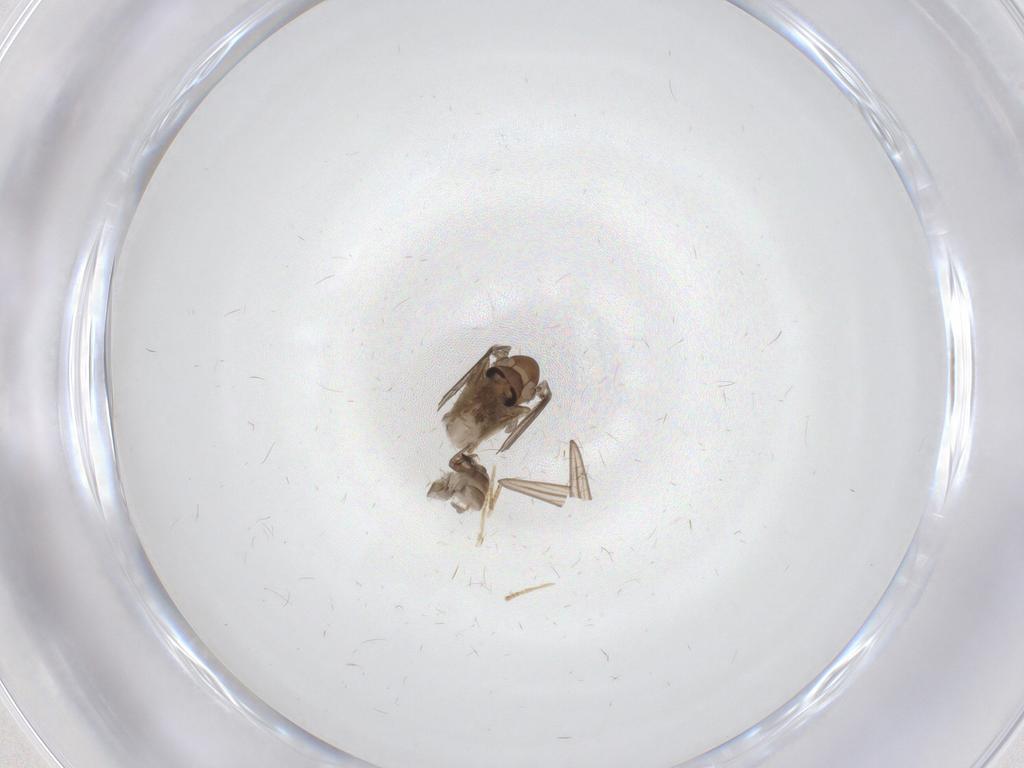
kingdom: Animalia
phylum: Arthropoda
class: Insecta
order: Diptera
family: Psychodidae
